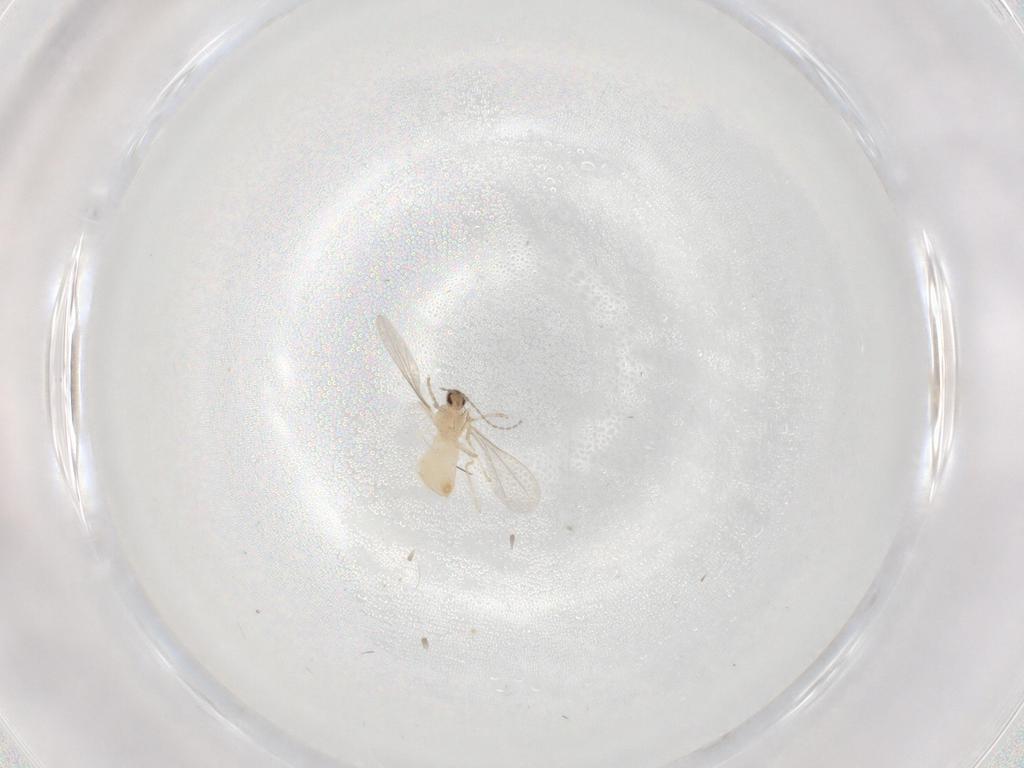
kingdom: Animalia
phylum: Arthropoda
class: Insecta
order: Diptera
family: Cecidomyiidae
